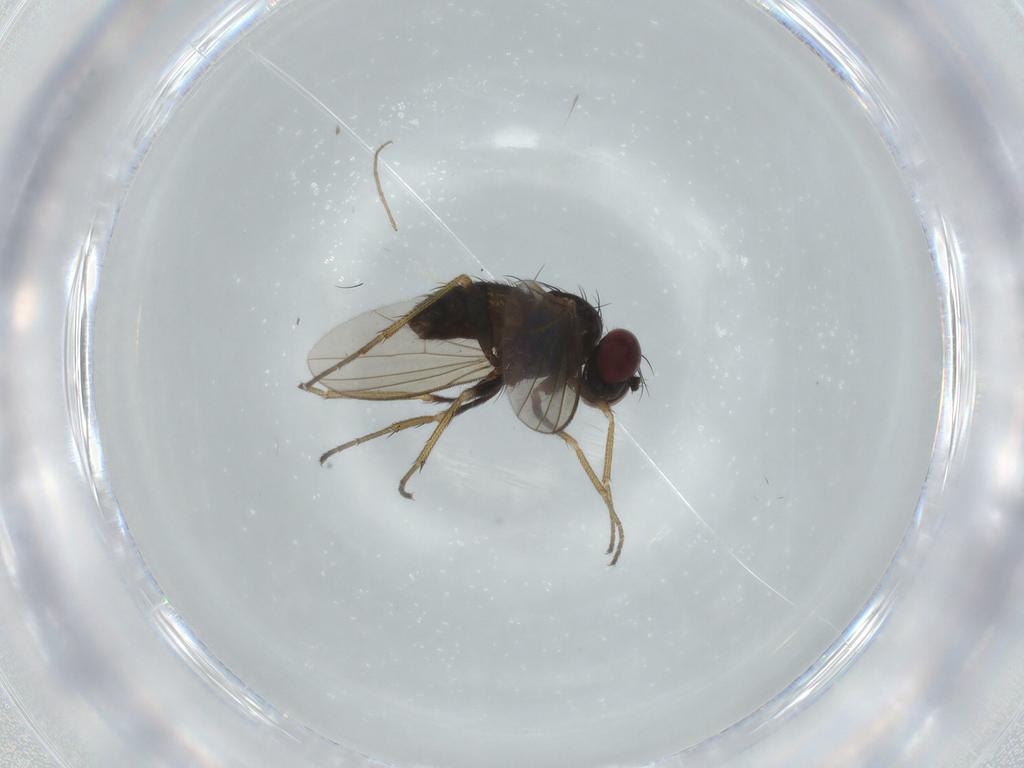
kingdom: Animalia
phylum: Arthropoda
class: Insecta
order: Diptera
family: Dolichopodidae
